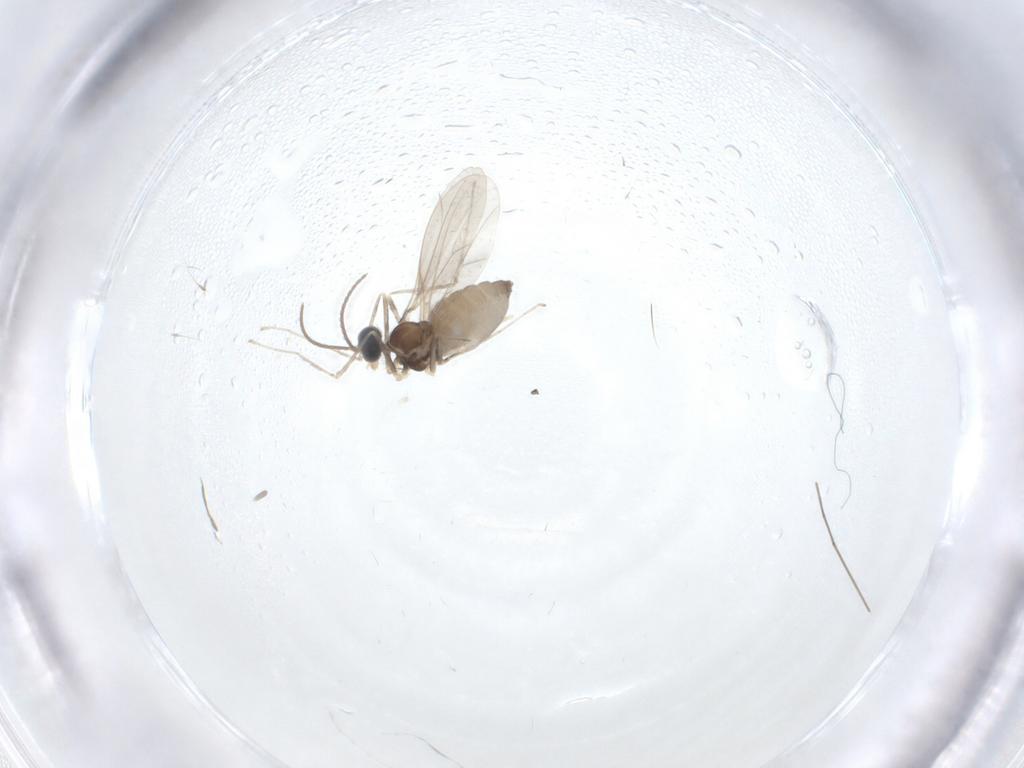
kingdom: Animalia
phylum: Arthropoda
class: Insecta
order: Diptera
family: Cecidomyiidae
